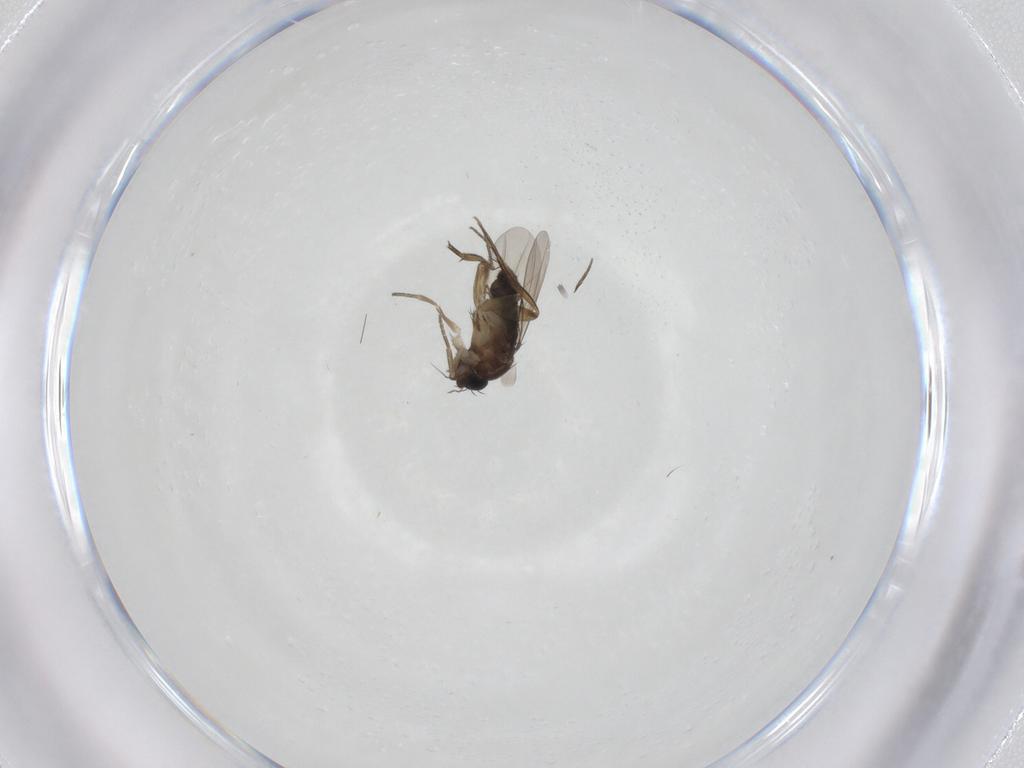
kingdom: Animalia
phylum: Arthropoda
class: Insecta
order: Diptera
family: Phoridae
